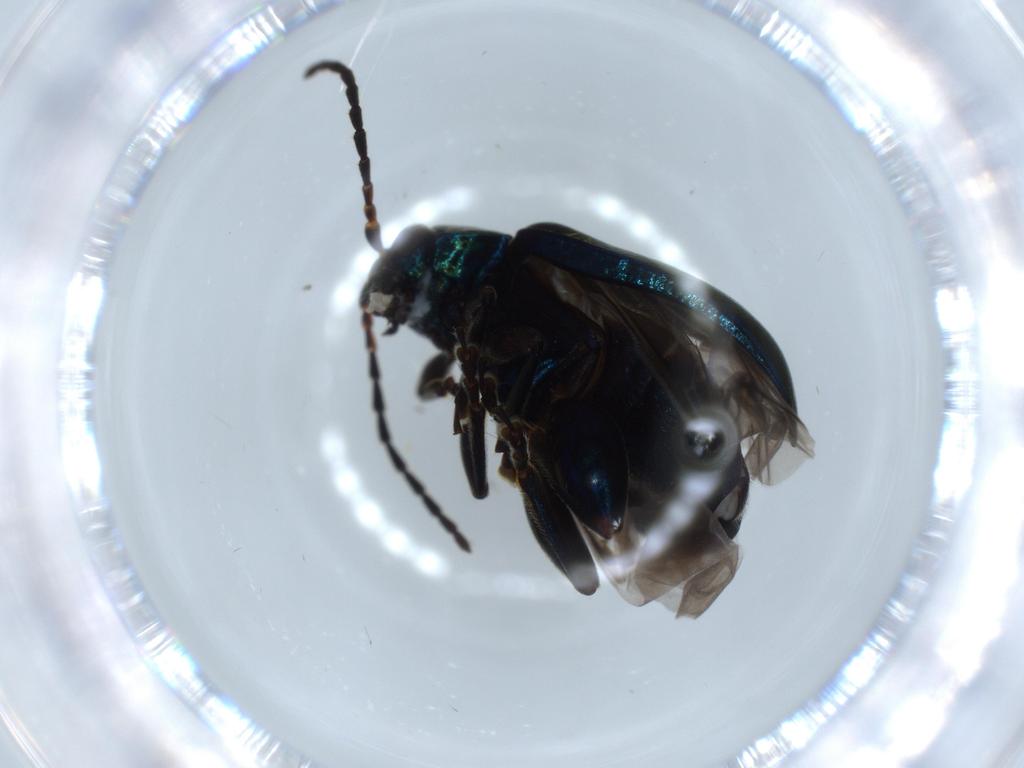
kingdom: Animalia
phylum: Arthropoda
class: Insecta
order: Coleoptera
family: Chrysomelidae
